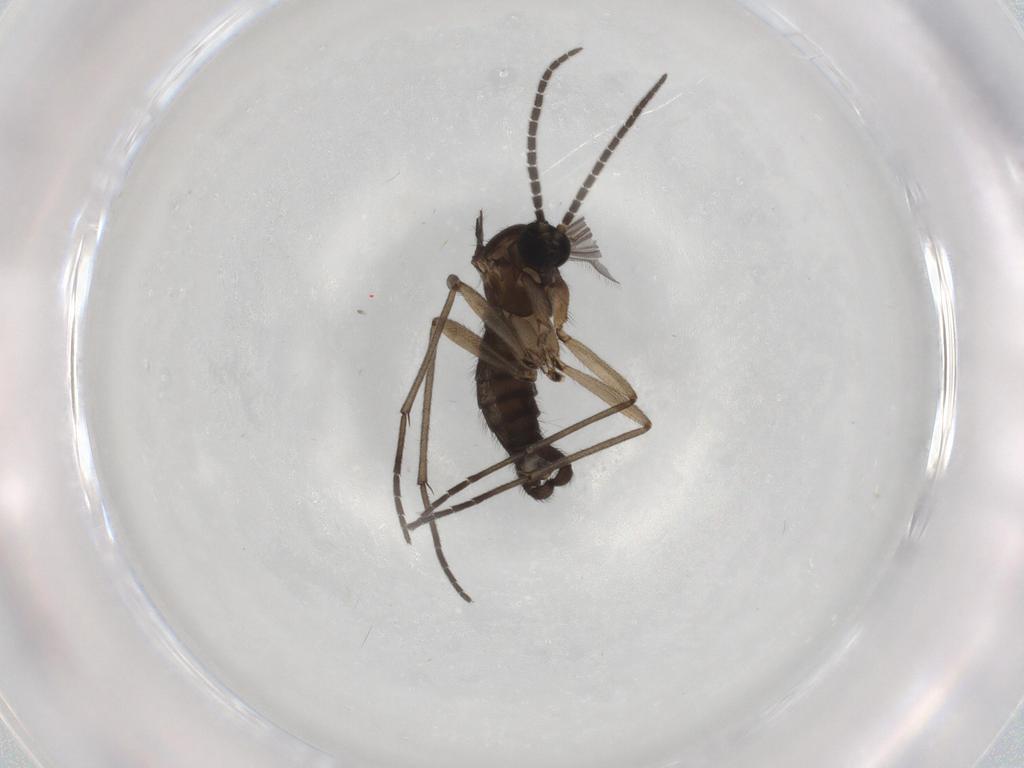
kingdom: Animalia
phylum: Arthropoda
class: Insecta
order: Diptera
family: Sciaridae
